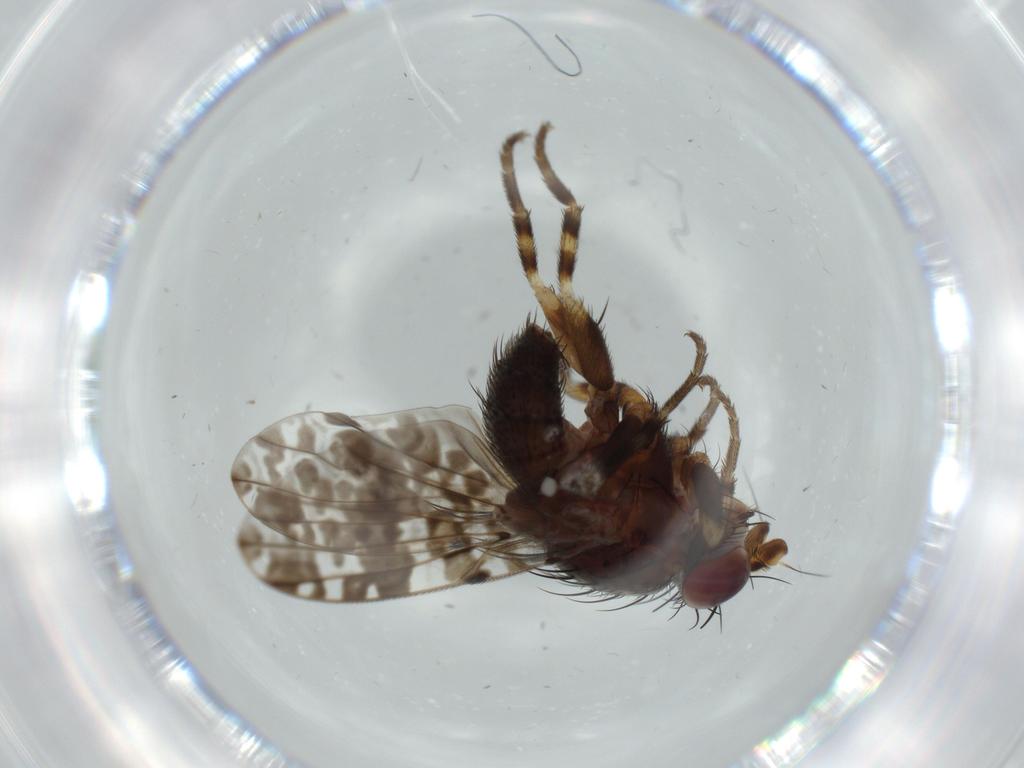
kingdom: Animalia
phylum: Arthropoda
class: Insecta
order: Diptera
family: Odiniidae
